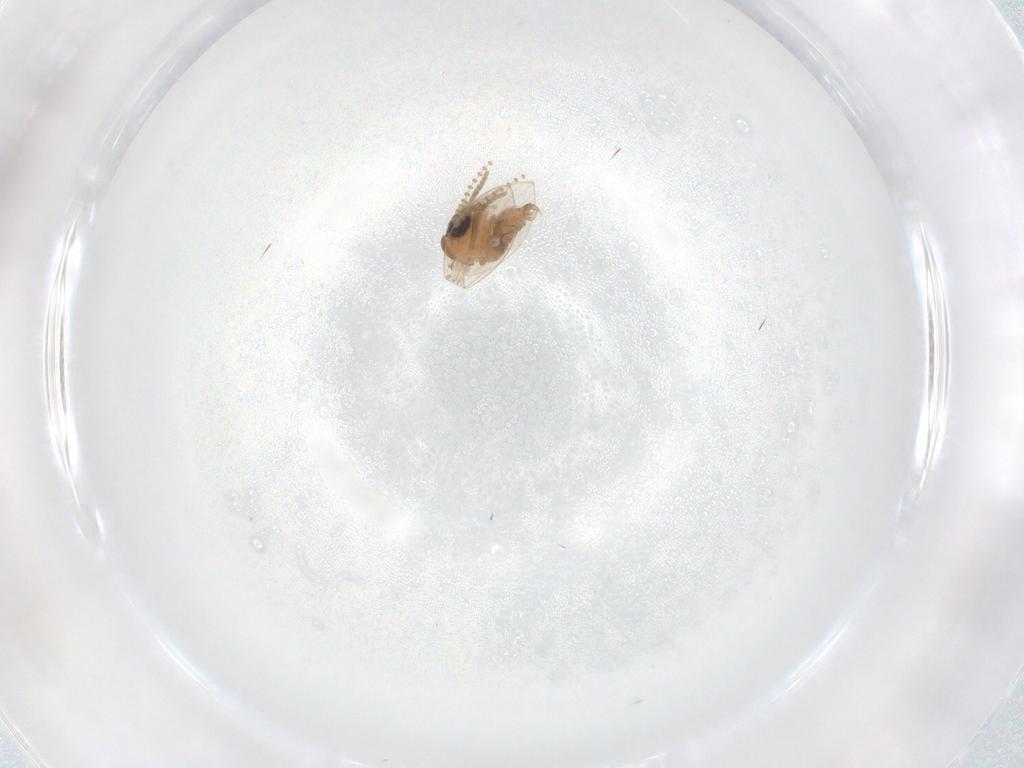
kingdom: Animalia
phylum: Arthropoda
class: Insecta
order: Diptera
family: Psychodidae
